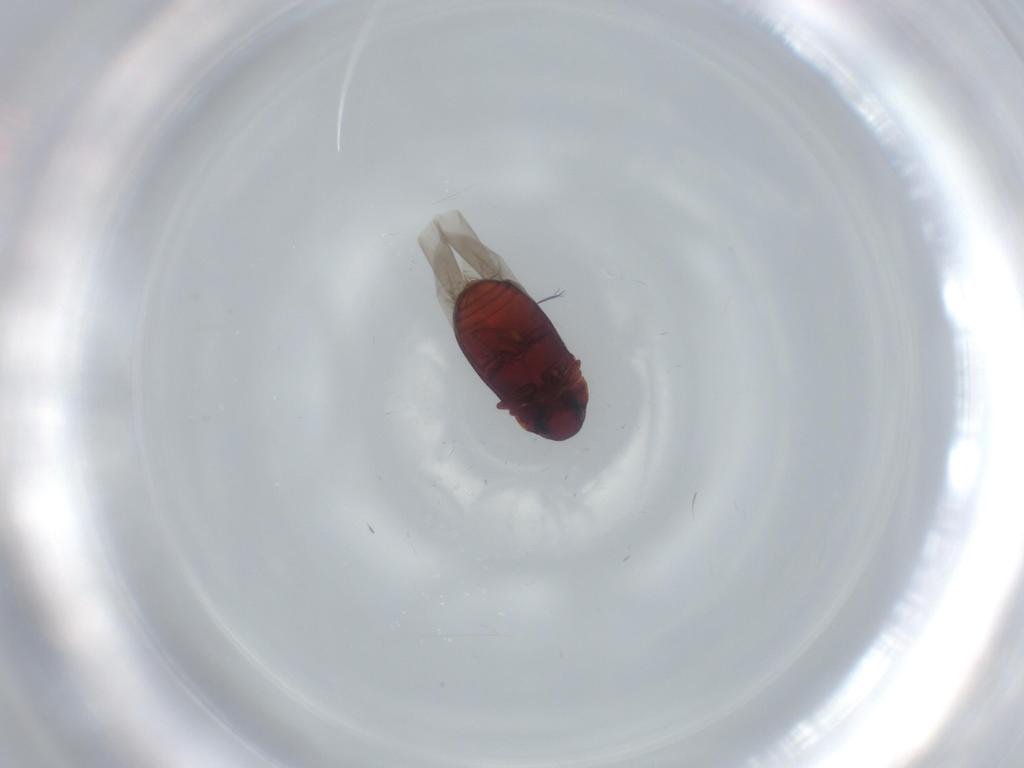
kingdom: Animalia
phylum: Arthropoda
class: Insecta
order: Coleoptera
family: Ptinidae
